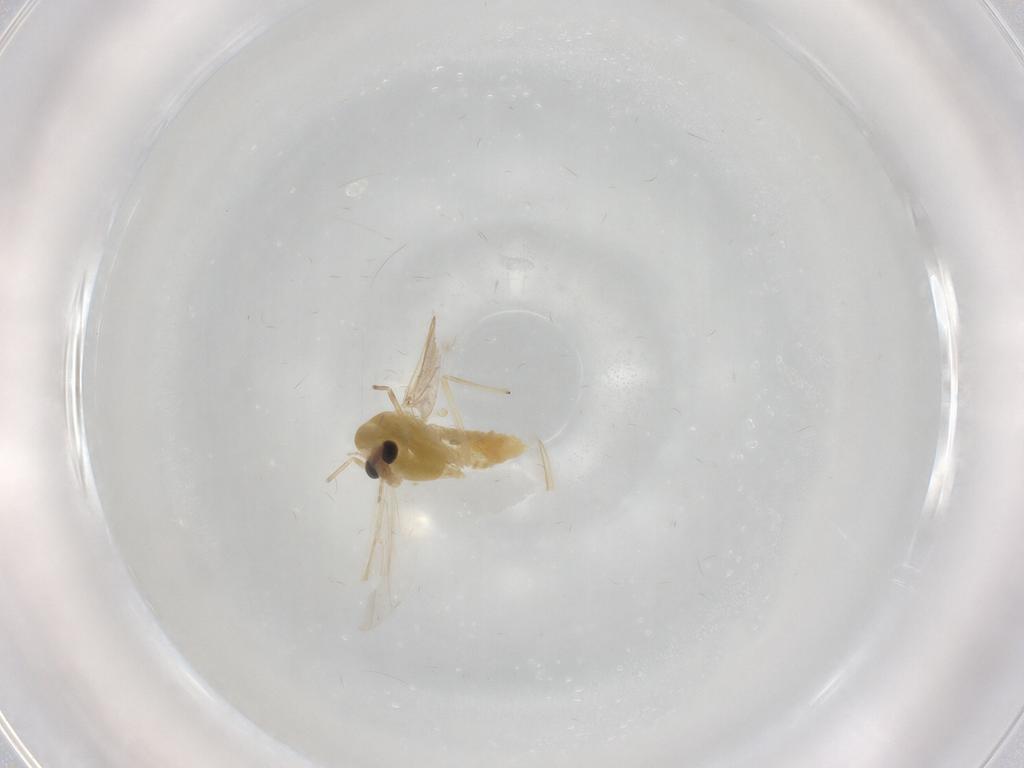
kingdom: Animalia
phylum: Arthropoda
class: Insecta
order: Diptera
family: Chironomidae
